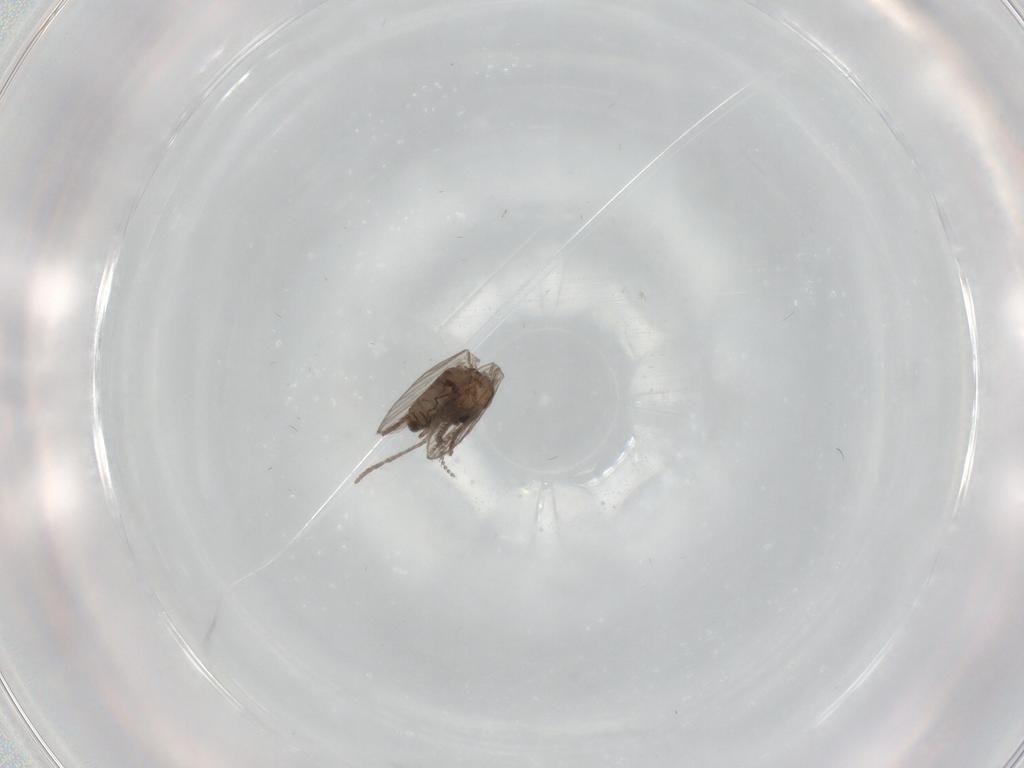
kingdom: Animalia
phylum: Arthropoda
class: Insecta
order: Diptera
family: Psychodidae
